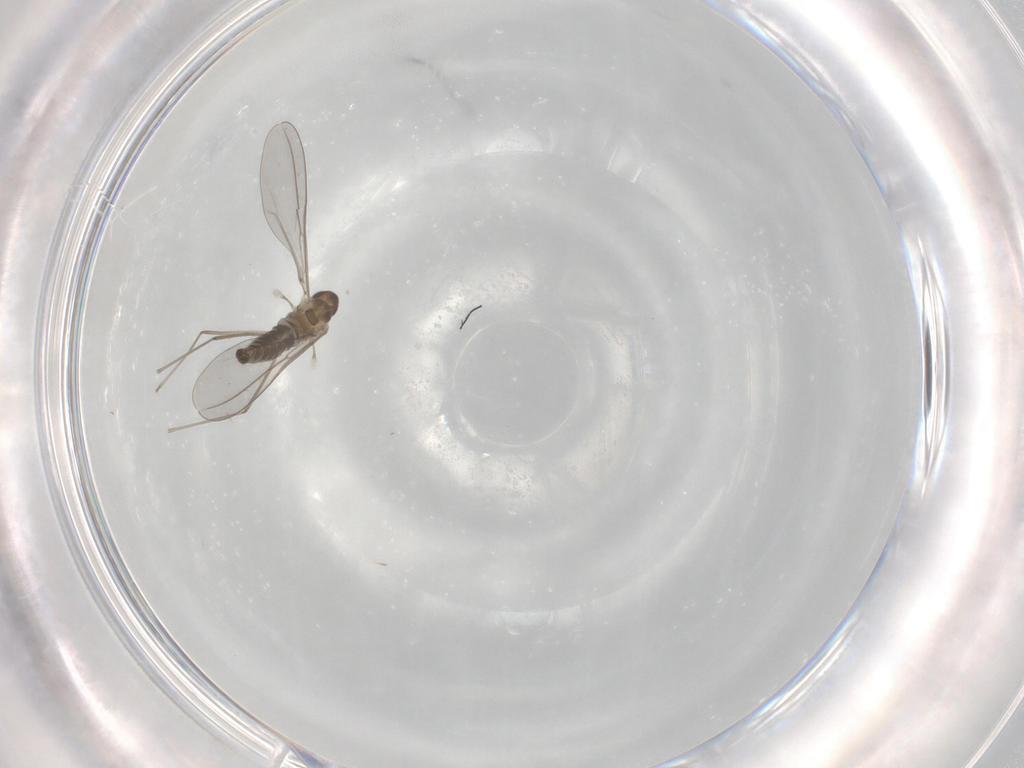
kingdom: Animalia
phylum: Arthropoda
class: Insecta
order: Diptera
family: Cecidomyiidae
